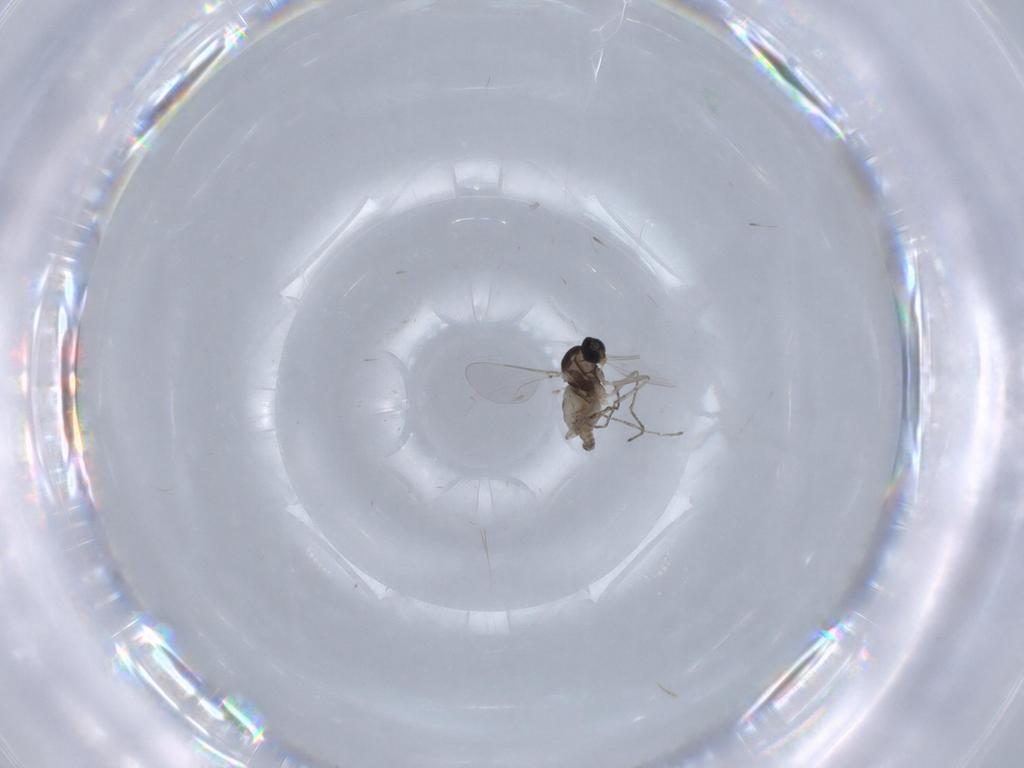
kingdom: Animalia
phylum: Arthropoda
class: Insecta
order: Diptera
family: Cecidomyiidae
